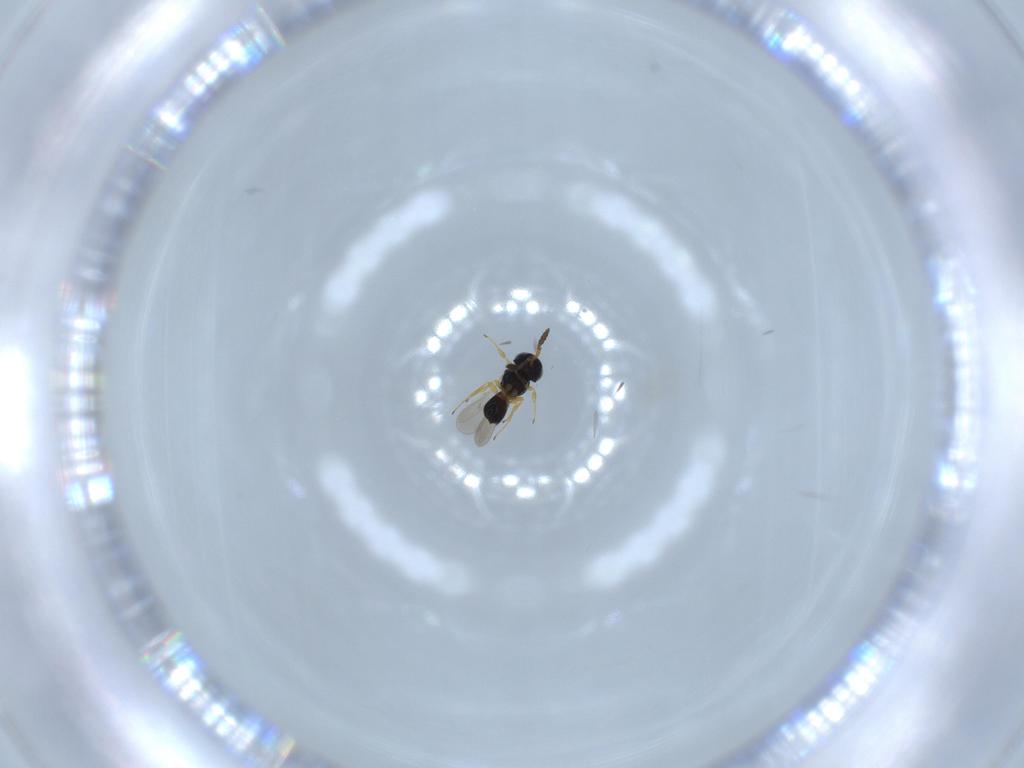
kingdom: Animalia
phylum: Arthropoda
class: Insecta
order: Hymenoptera
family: Scelionidae
